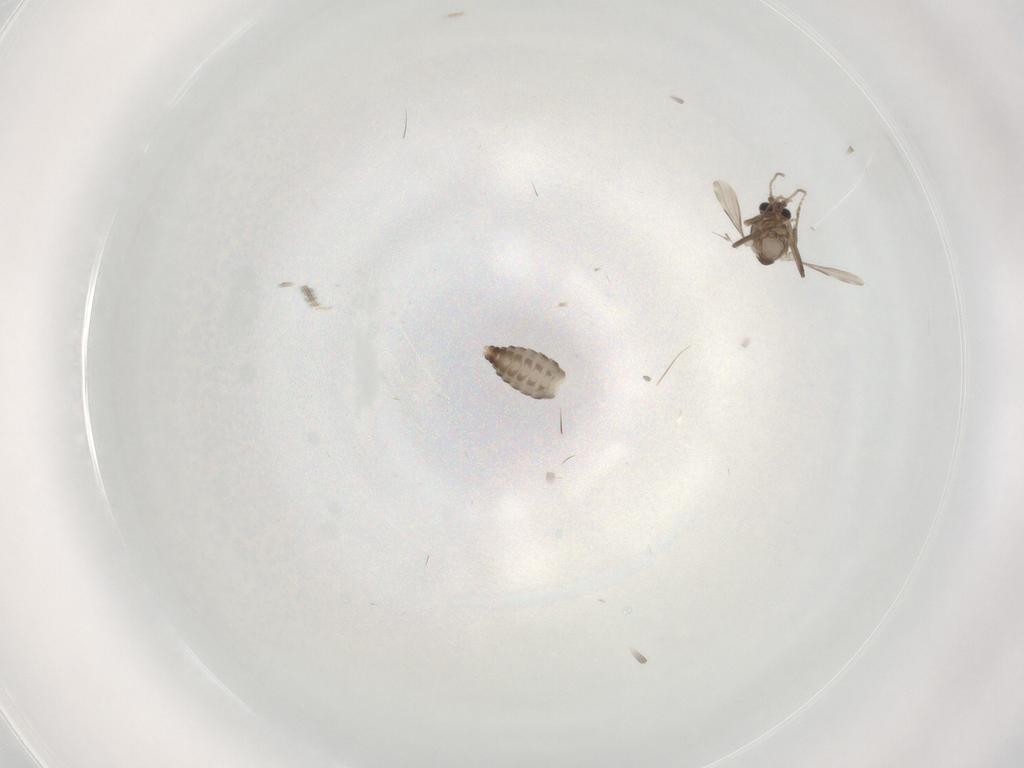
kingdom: Animalia
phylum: Arthropoda
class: Insecta
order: Diptera
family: Ceratopogonidae
